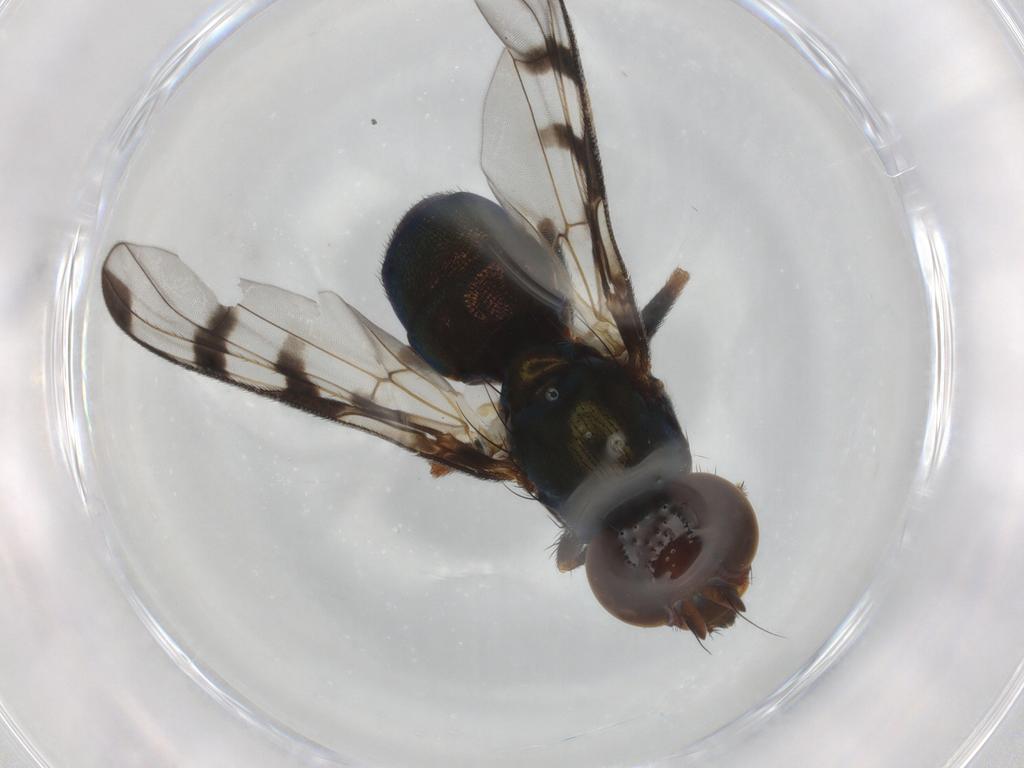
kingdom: Animalia
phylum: Arthropoda
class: Insecta
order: Diptera
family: Platystomatidae
